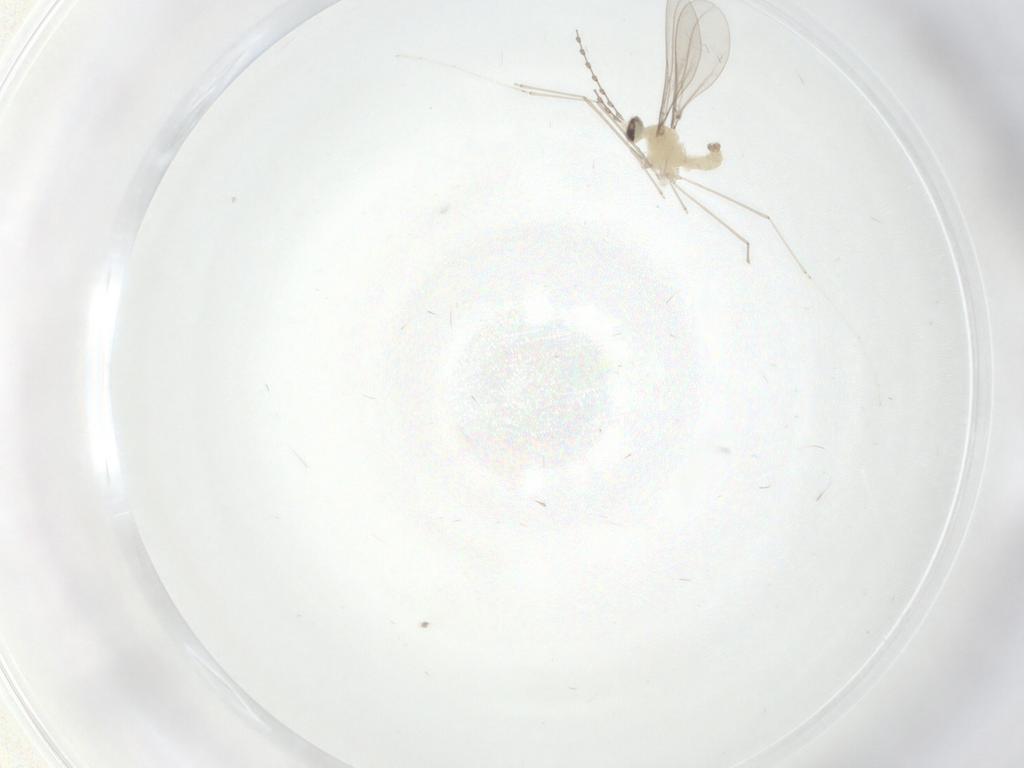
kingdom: Animalia
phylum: Arthropoda
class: Insecta
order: Diptera
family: Cecidomyiidae
